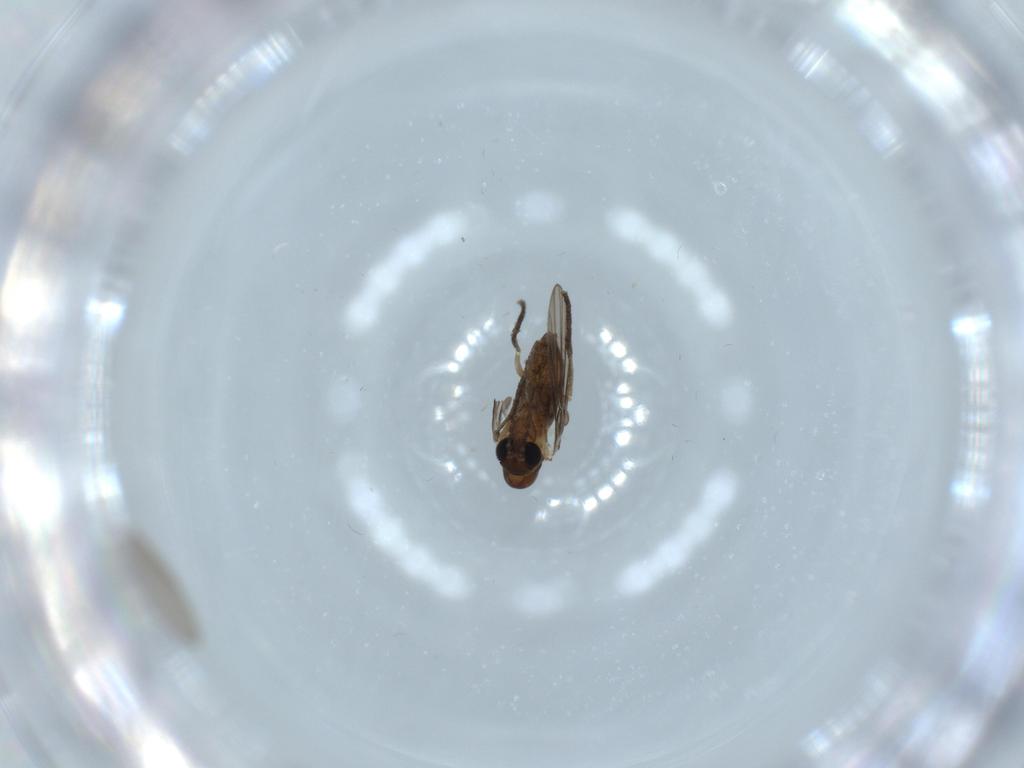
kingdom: Animalia
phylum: Arthropoda
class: Insecta
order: Diptera
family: Psychodidae
